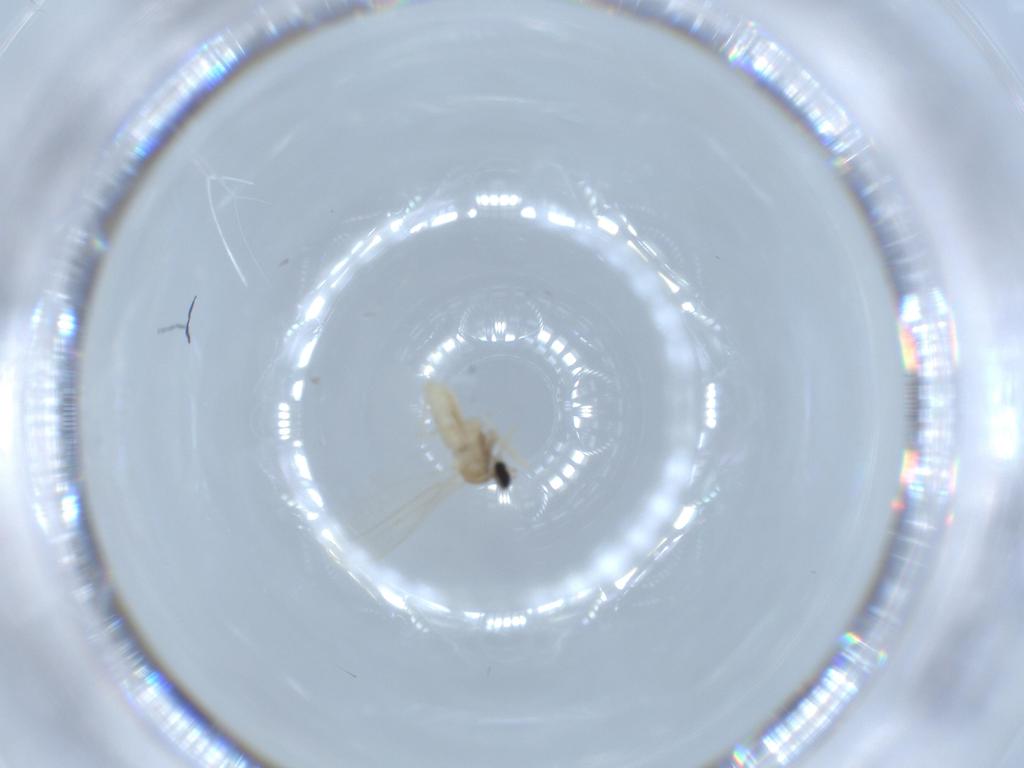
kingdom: Animalia
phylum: Arthropoda
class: Insecta
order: Diptera
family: Cecidomyiidae
